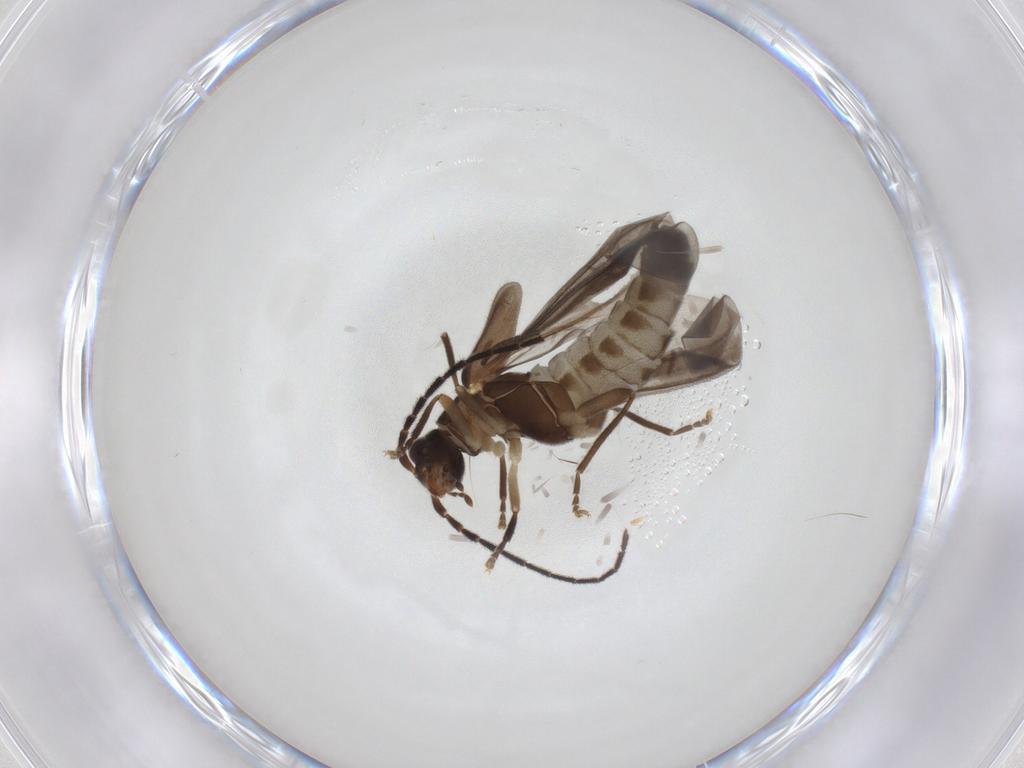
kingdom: Animalia
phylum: Arthropoda
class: Insecta
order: Coleoptera
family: Cantharidae
